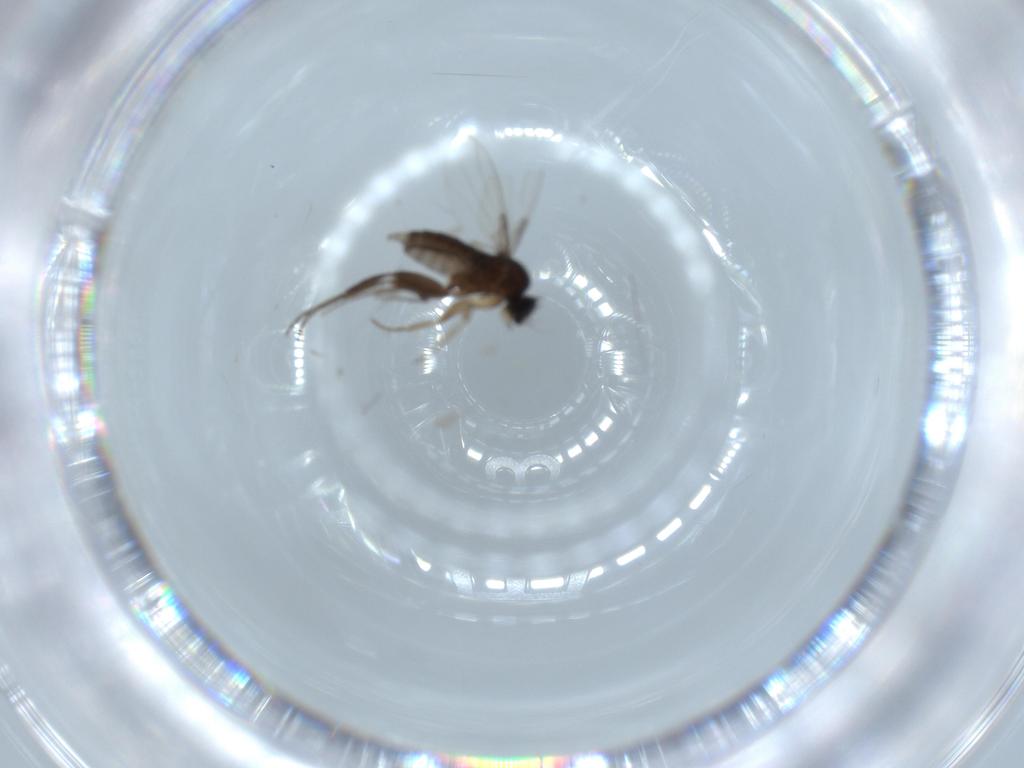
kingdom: Animalia
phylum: Arthropoda
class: Insecta
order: Diptera
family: Phoridae
